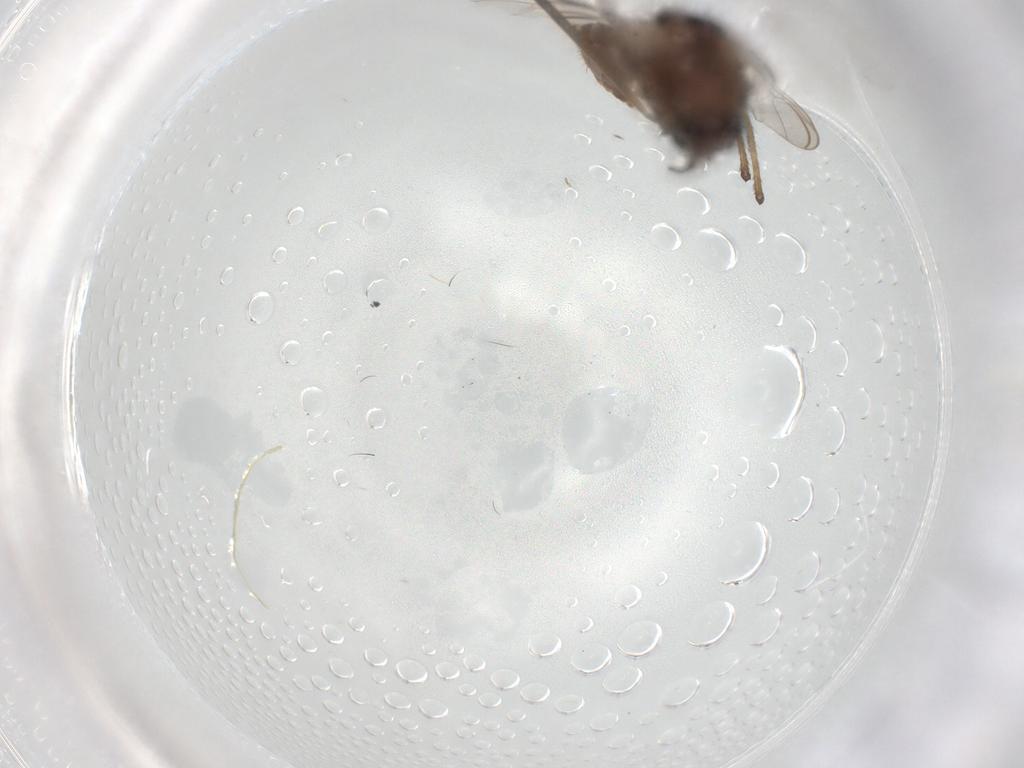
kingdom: Animalia
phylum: Arthropoda
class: Insecta
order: Diptera
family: Chironomidae
